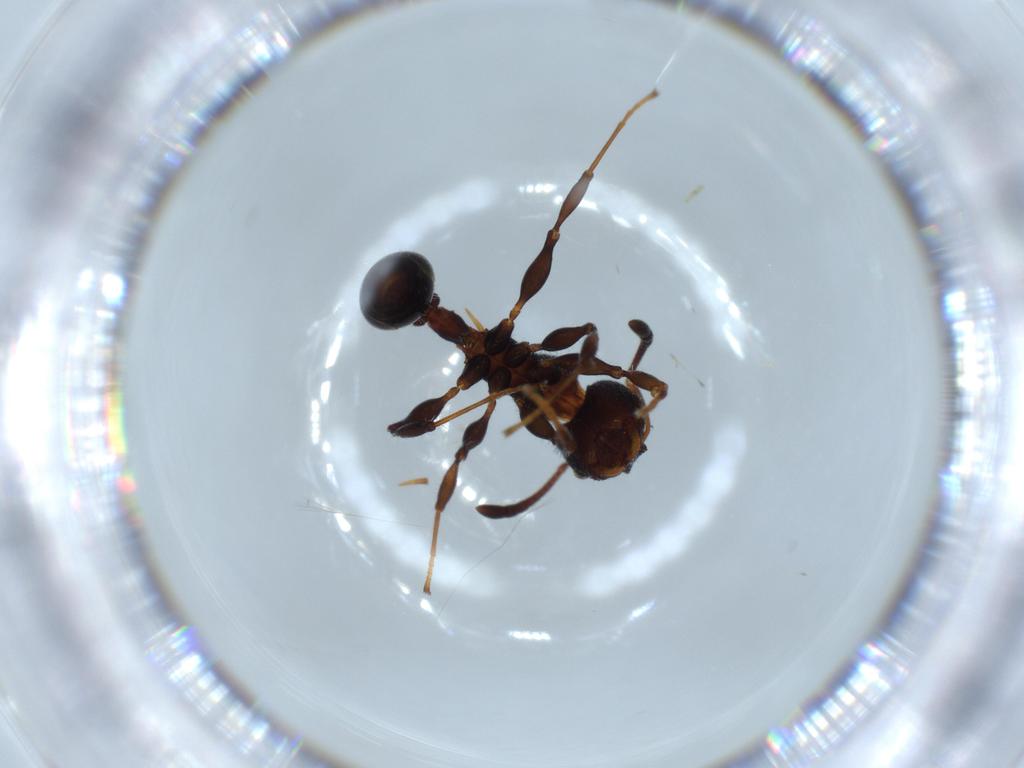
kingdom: Animalia
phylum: Arthropoda
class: Insecta
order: Hymenoptera
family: Formicidae
